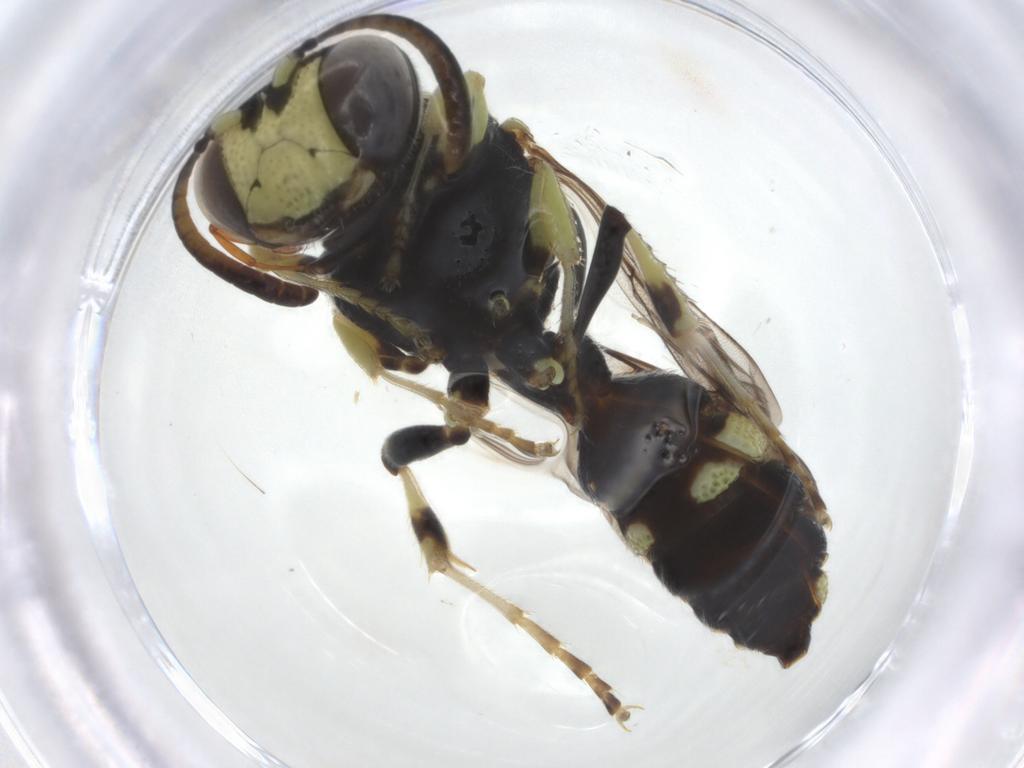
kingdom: Animalia
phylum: Arthropoda
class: Insecta
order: Hymenoptera
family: Crabronidae
